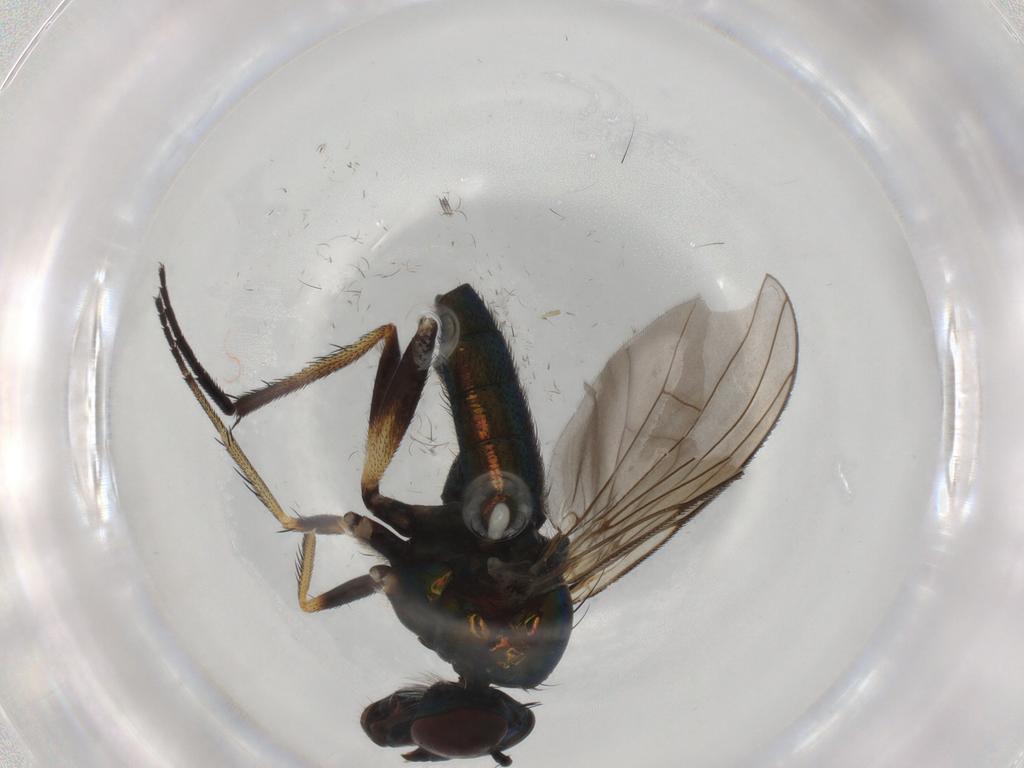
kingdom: Animalia
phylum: Arthropoda
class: Insecta
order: Diptera
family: Dolichopodidae
